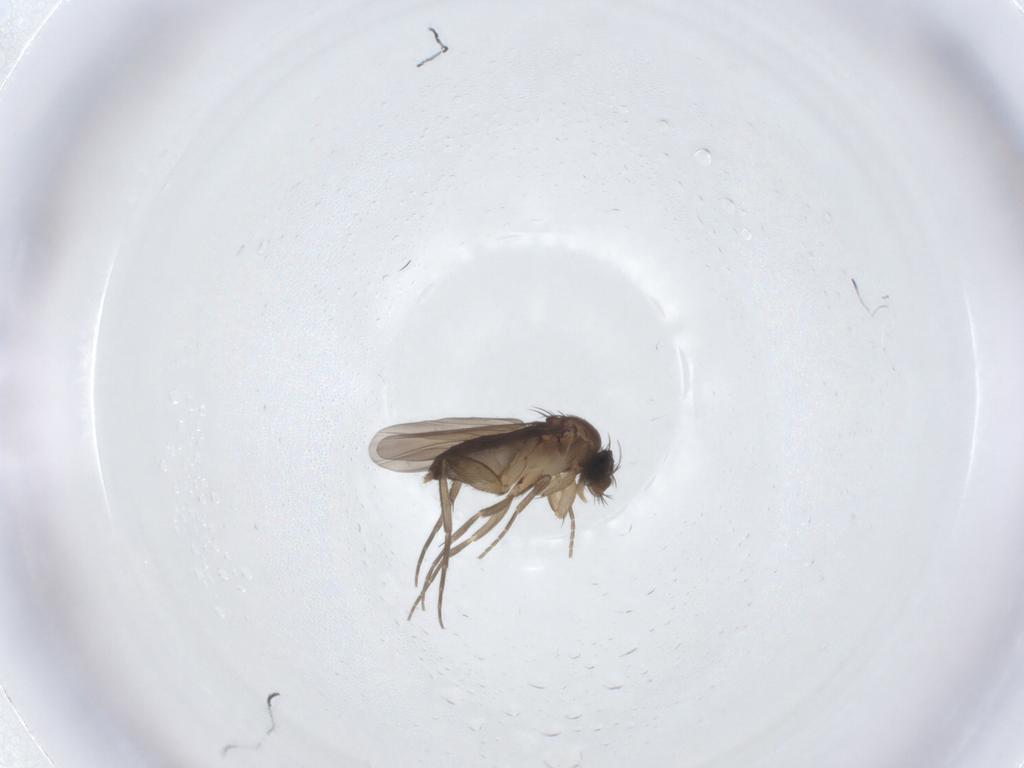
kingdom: Animalia
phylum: Arthropoda
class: Insecta
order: Diptera
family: Phoridae
